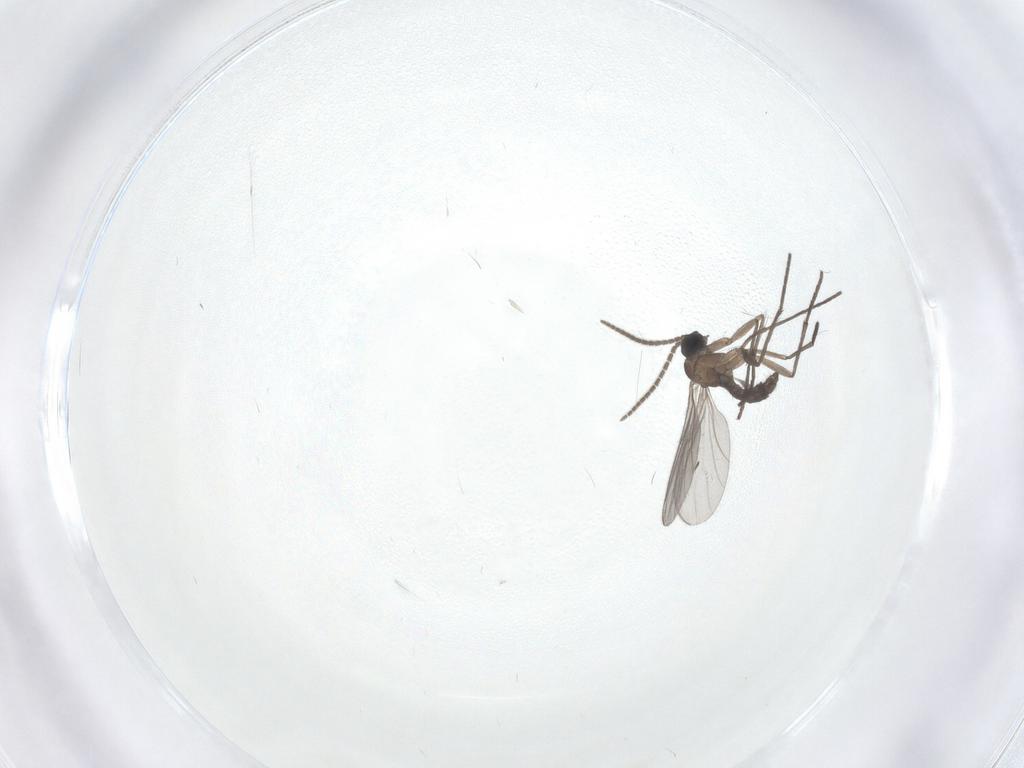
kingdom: Animalia
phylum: Arthropoda
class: Insecta
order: Diptera
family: Sciaridae
